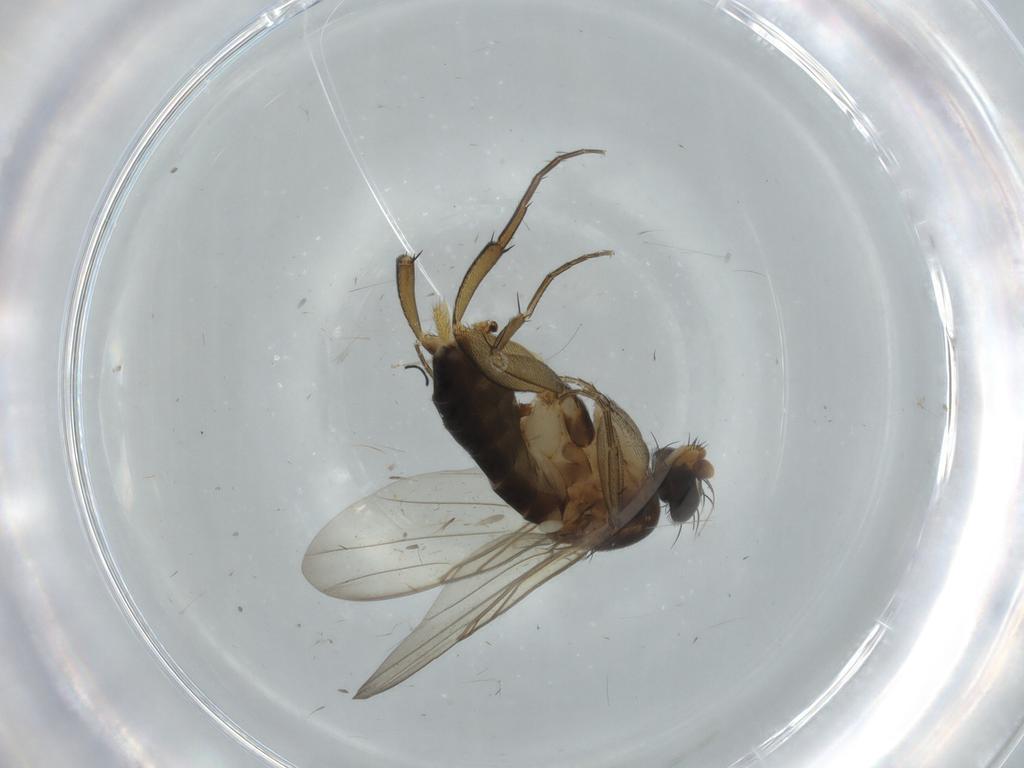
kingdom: Animalia
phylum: Arthropoda
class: Insecta
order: Diptera
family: Phoridae
